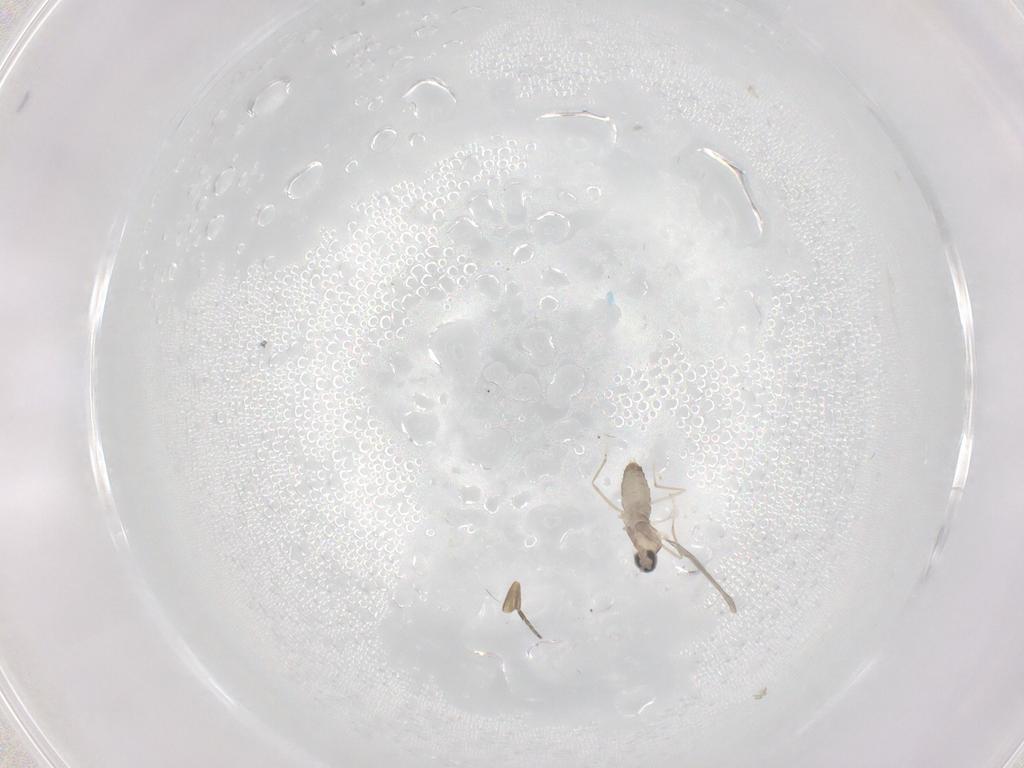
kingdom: Animalia
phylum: Arthropoda
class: Insecta
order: Diptera
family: Cecidomyiidae
